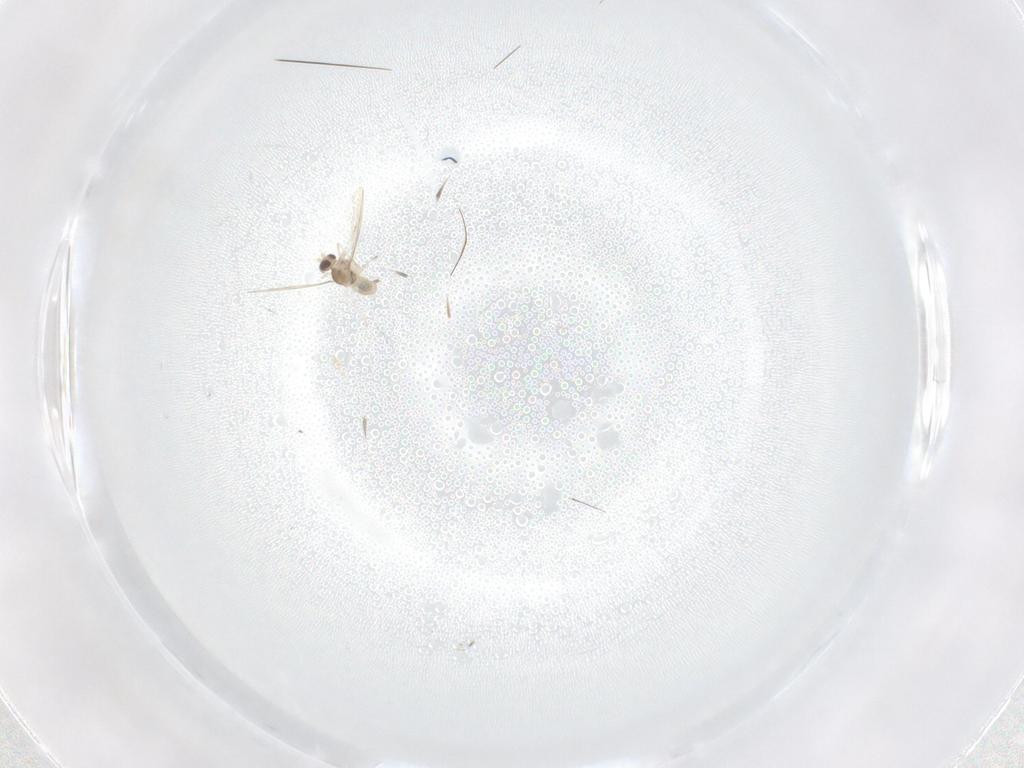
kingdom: Animalia
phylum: Arthropoda
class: Insecta
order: Diptera
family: Cecidomyiidae
